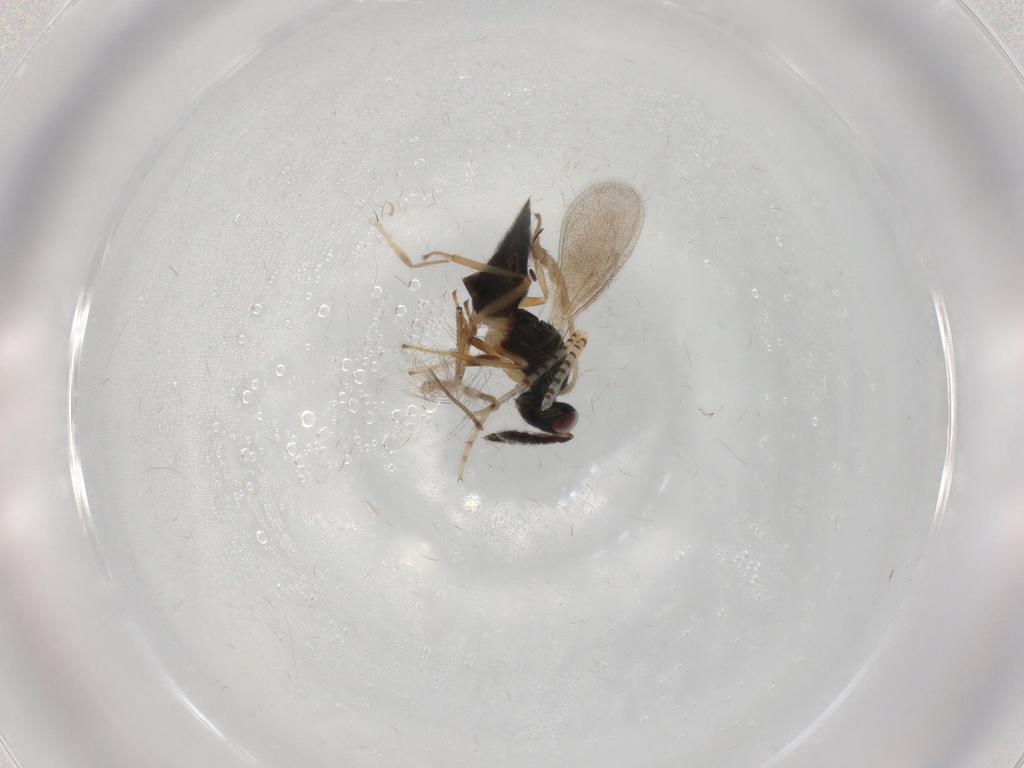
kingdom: Animalia
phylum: Arthropoda
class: Insecta
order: Hymenoptera
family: Eulophidae
